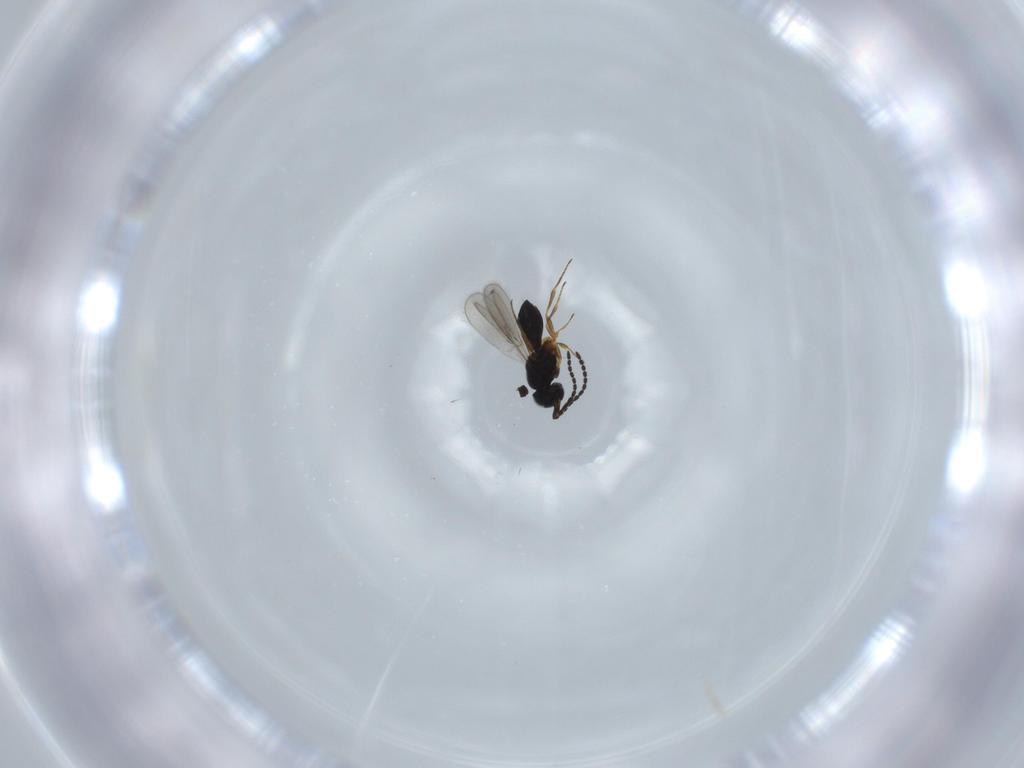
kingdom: Animalia
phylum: Arthropoda
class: Insecta
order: Hymenoptera
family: Scelionidae
